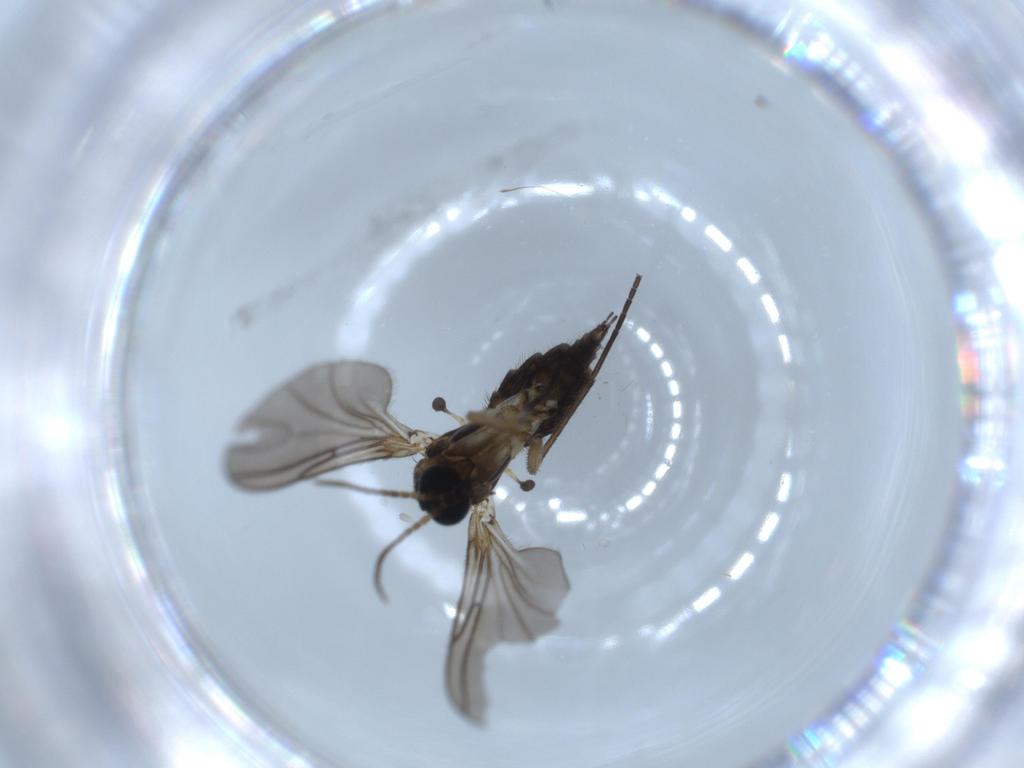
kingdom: Animalia
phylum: Arthropoda
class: Insecta
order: Diptera
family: Sciaridae
